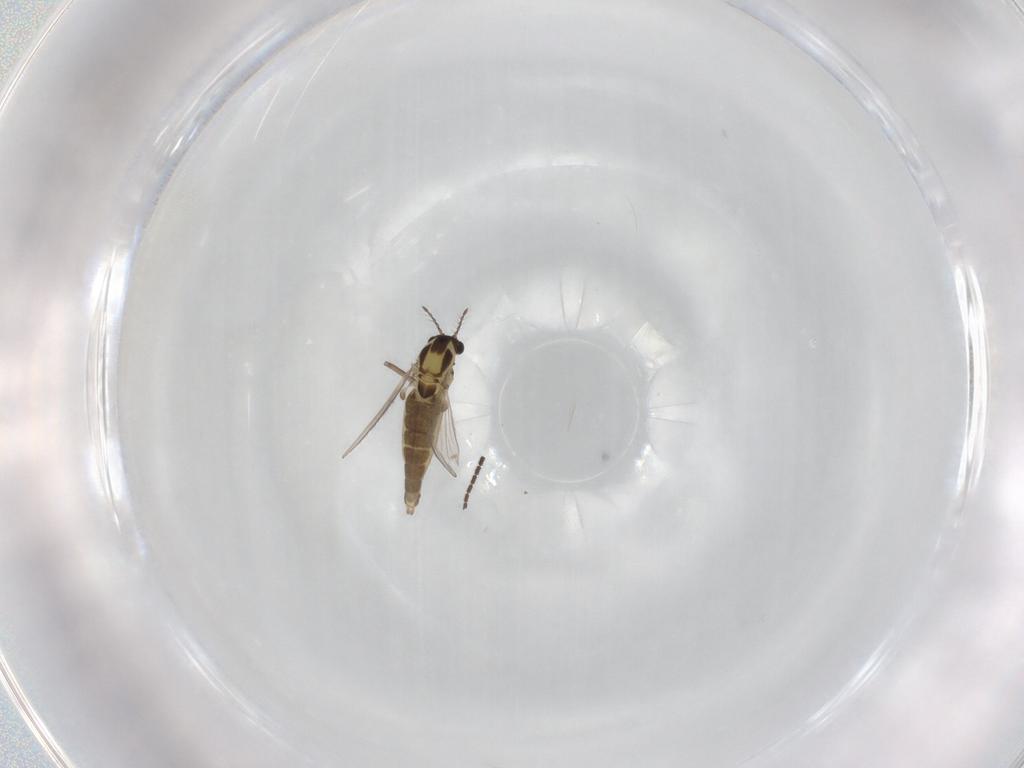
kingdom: Animalia
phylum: Arthropoda
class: Insecta
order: Diptera
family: Chironomidae
